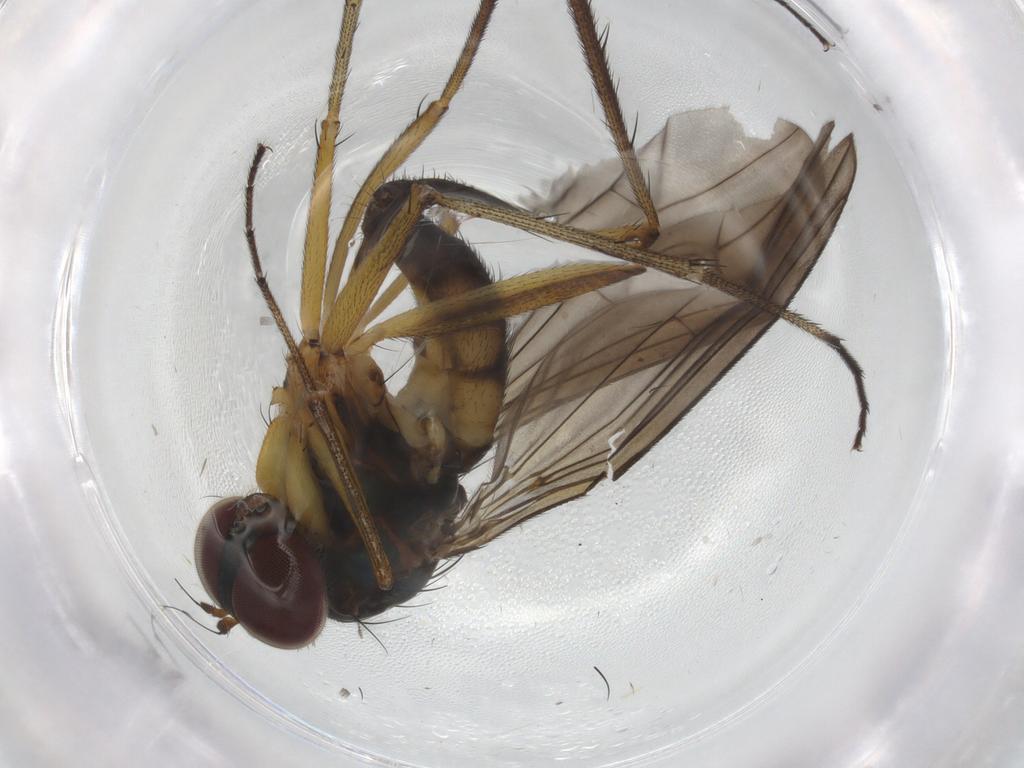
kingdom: Animalia
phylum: Arthropoda
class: Insecta
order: Diptera
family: Dolichopodidae
